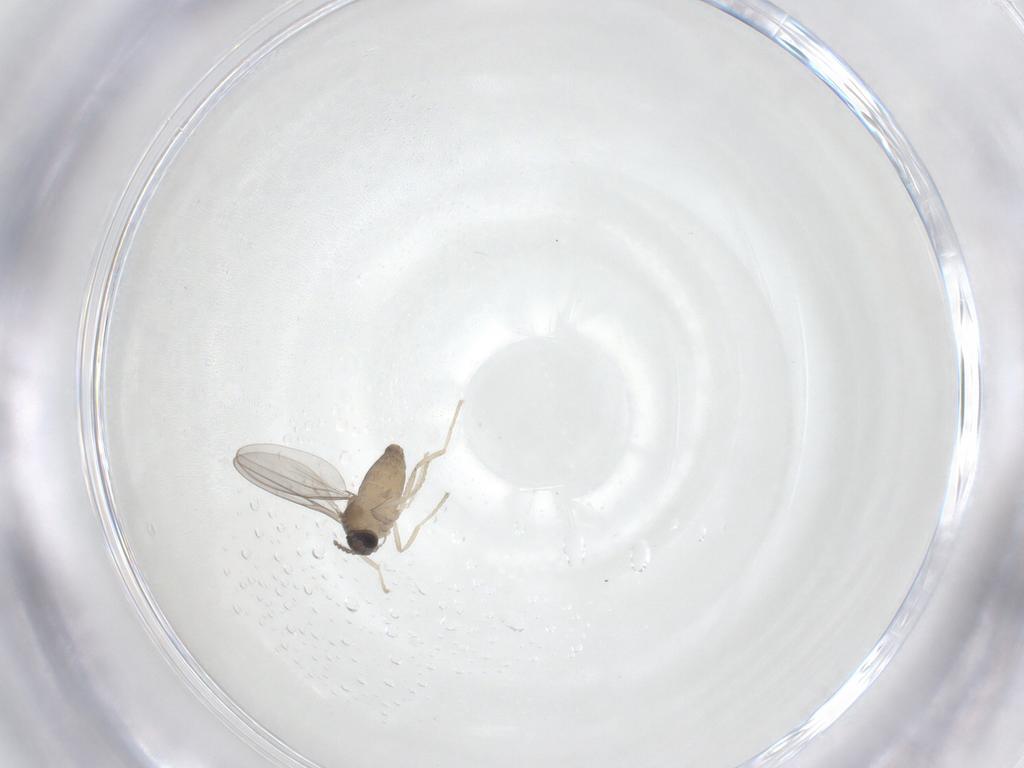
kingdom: Animalia
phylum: Arthropoda
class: Insecta
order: Diptera
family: Cecidomyiidae
